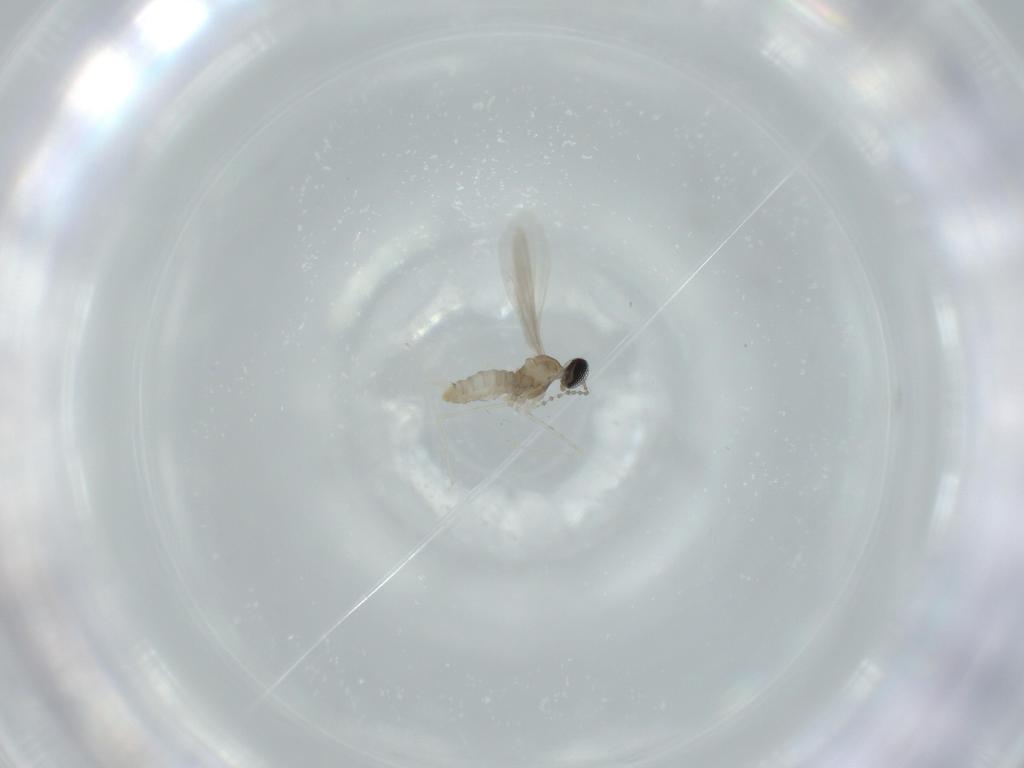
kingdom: Animalia
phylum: Arthropoda
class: Insecta
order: Diptera
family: Cecidomyiidae
